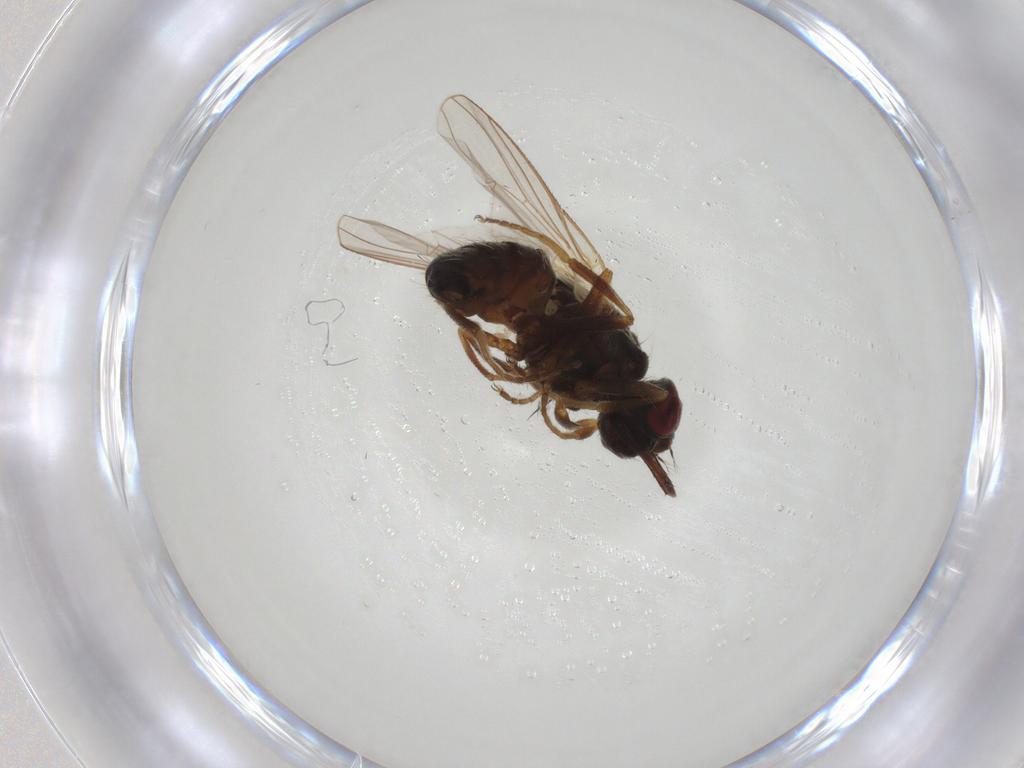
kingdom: Animalia
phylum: Arthropoda
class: Insecta
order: Diptera
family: Muscidae
